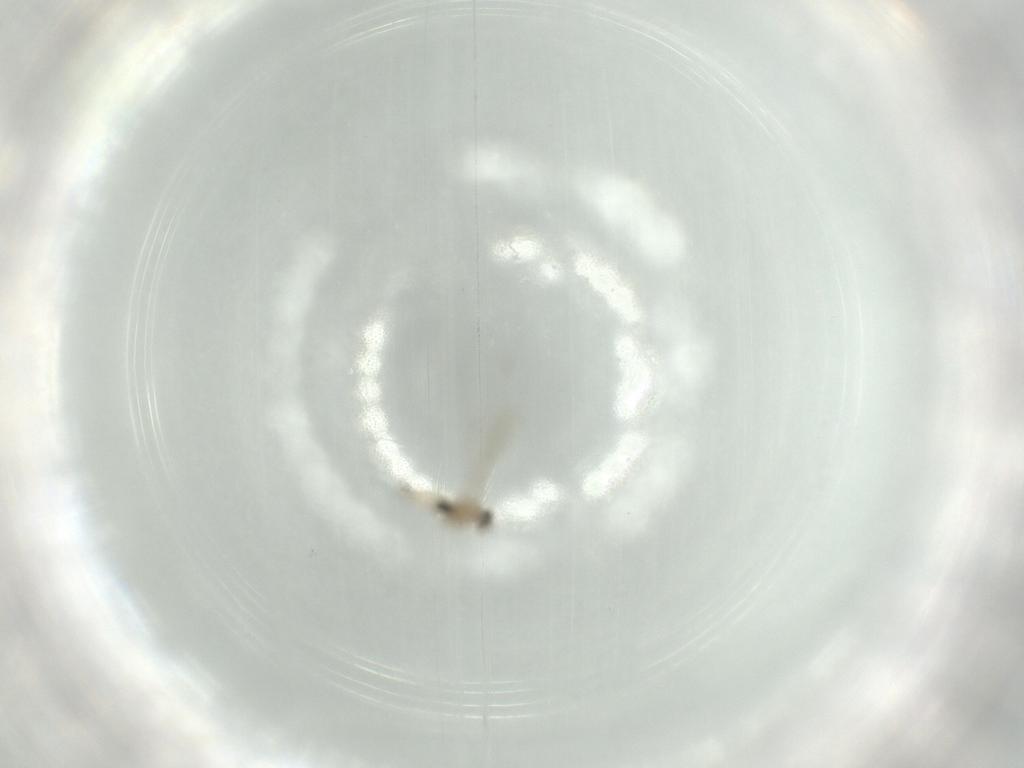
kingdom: Animalia
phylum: Arthropoda
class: Insecta
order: Diptera
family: Cecidomyiidae
